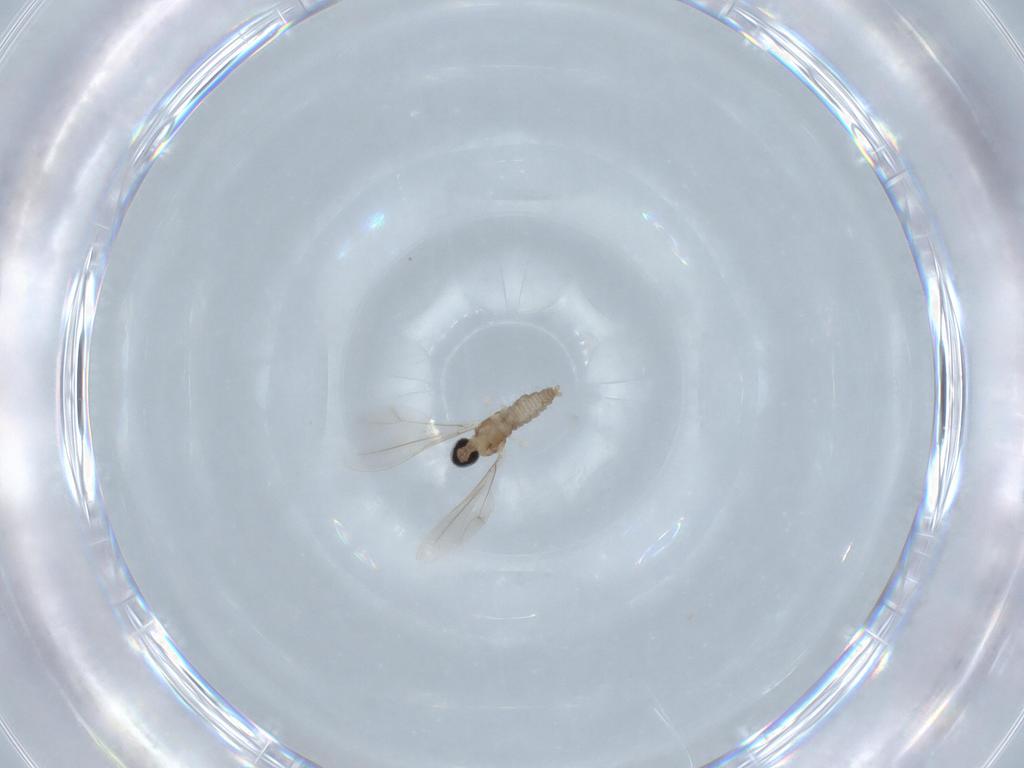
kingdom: Animalia
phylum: Arthropoda
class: Insecta
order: Diptera
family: Cecidomyiidae
